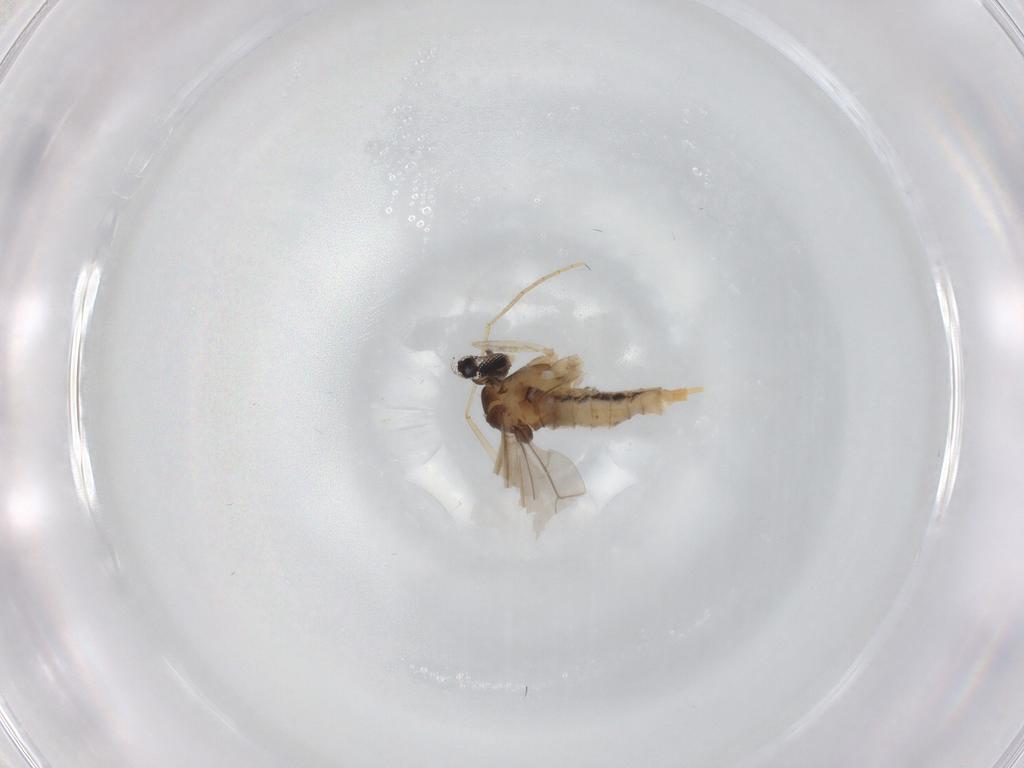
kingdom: Animalia
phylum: Arthropoda
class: Insecta
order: Diptera
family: Cecidomyiidae
